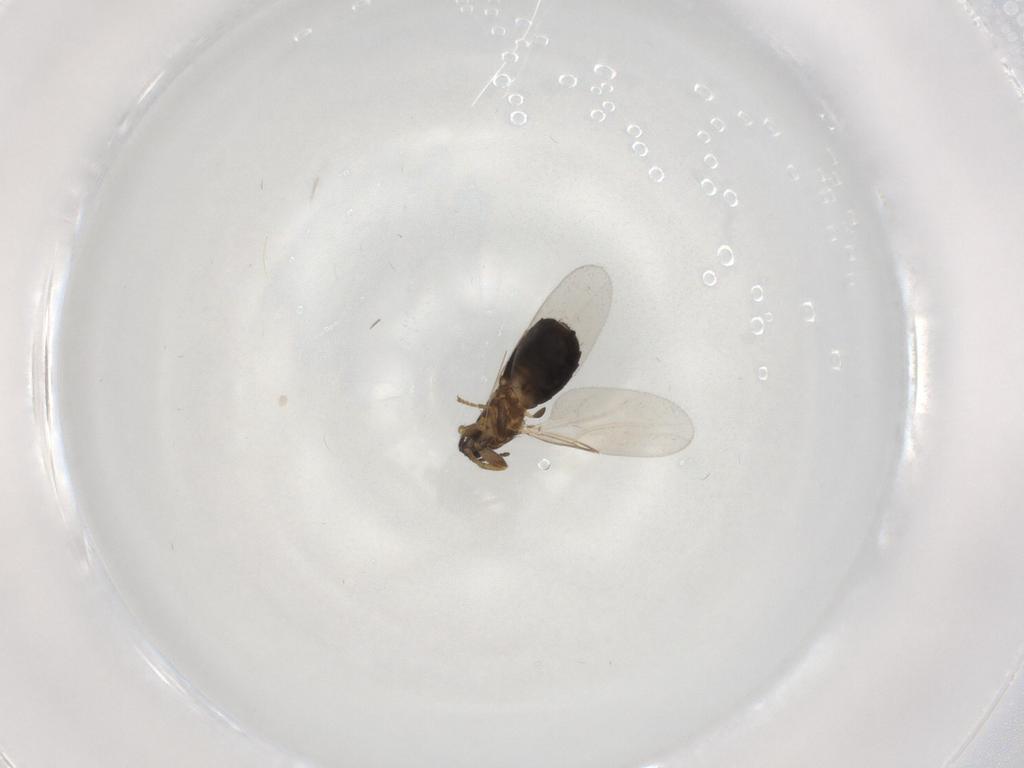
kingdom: Animalia
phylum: Arthropoda
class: Insecta
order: Diptera
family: Scatopsidae
